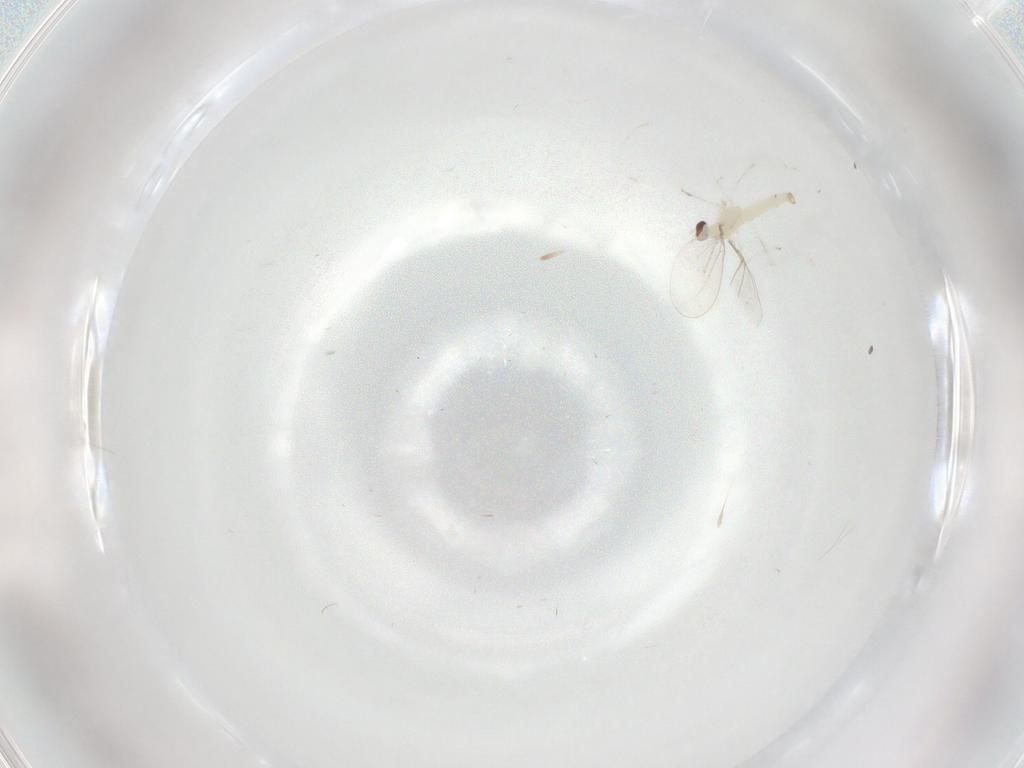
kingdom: Animalia
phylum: Arthropoda
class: Insecta
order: Diptera
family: Cecidomyiidae
